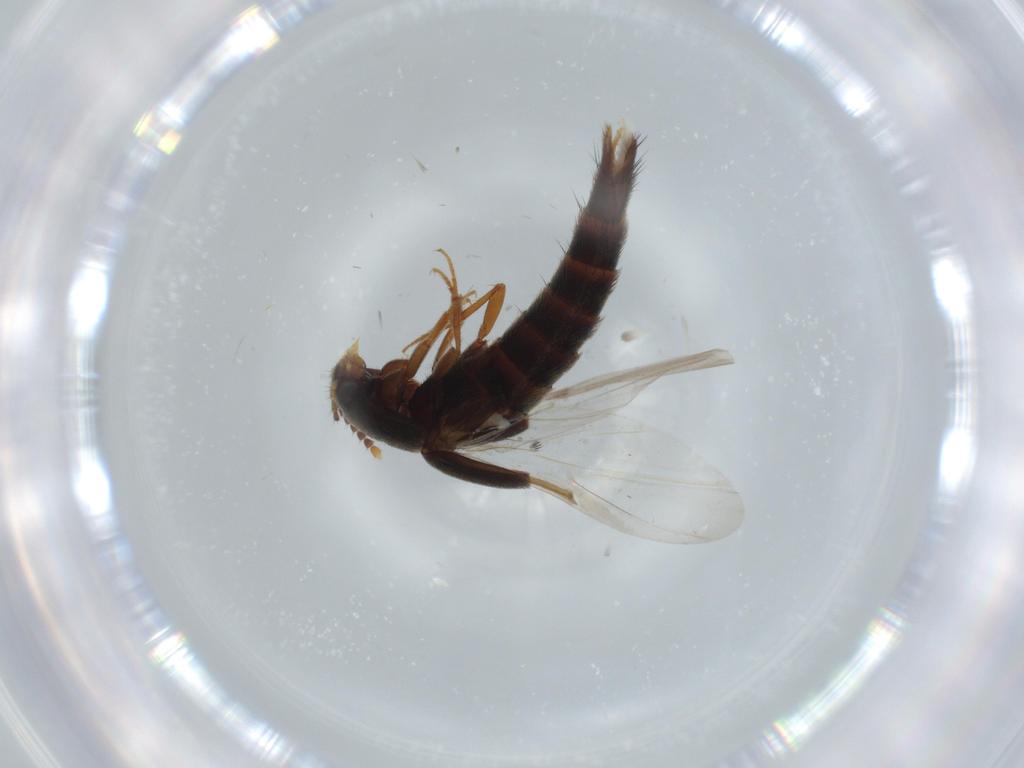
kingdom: Animalia
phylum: Arthropoda
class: Insecta
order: Coleoptera
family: Staphylinidae
